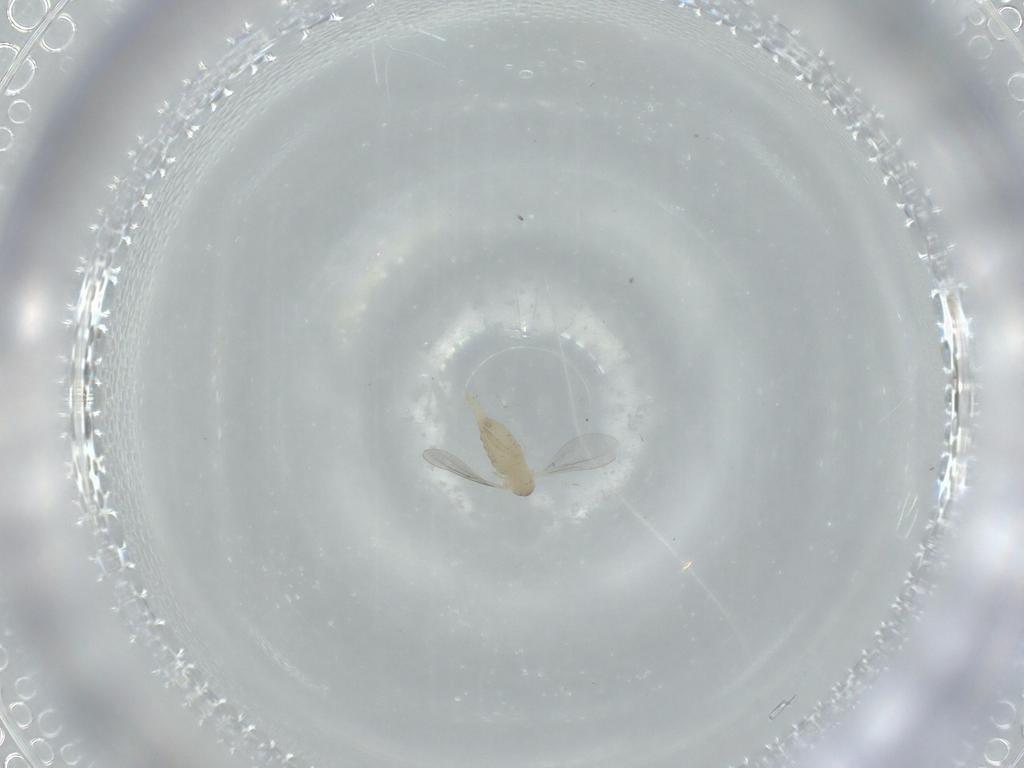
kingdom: Animalia
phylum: Arthropoda
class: Insecta
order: Diptera
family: Cecidomyiidae
